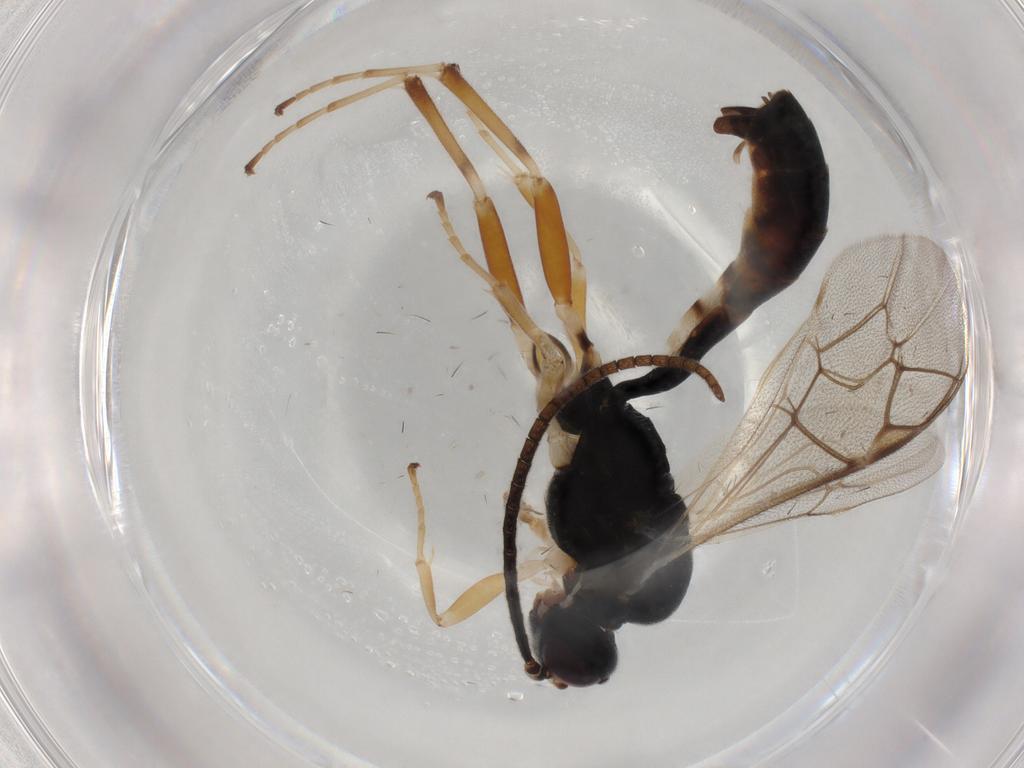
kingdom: Animalia
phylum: Arthropoda
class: Insecta
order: Hymenoptera
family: Ichneumonidae
